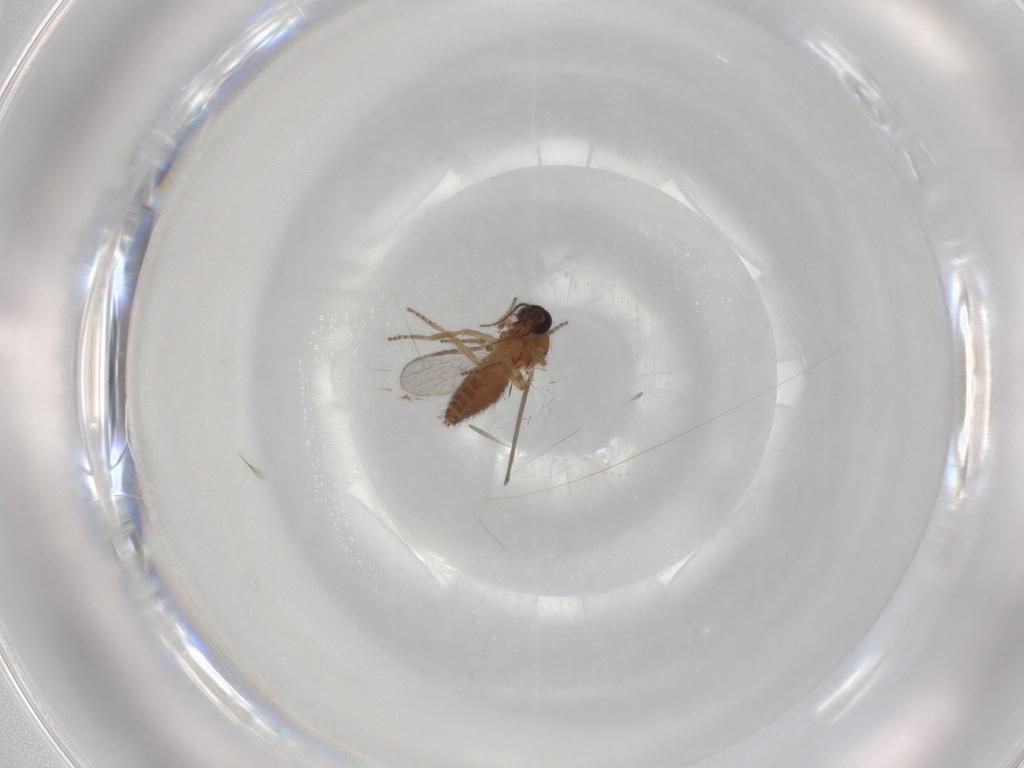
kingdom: Animalia
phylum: Arthropoda
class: Insecta
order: Diptera
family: Ceratopogonidae
